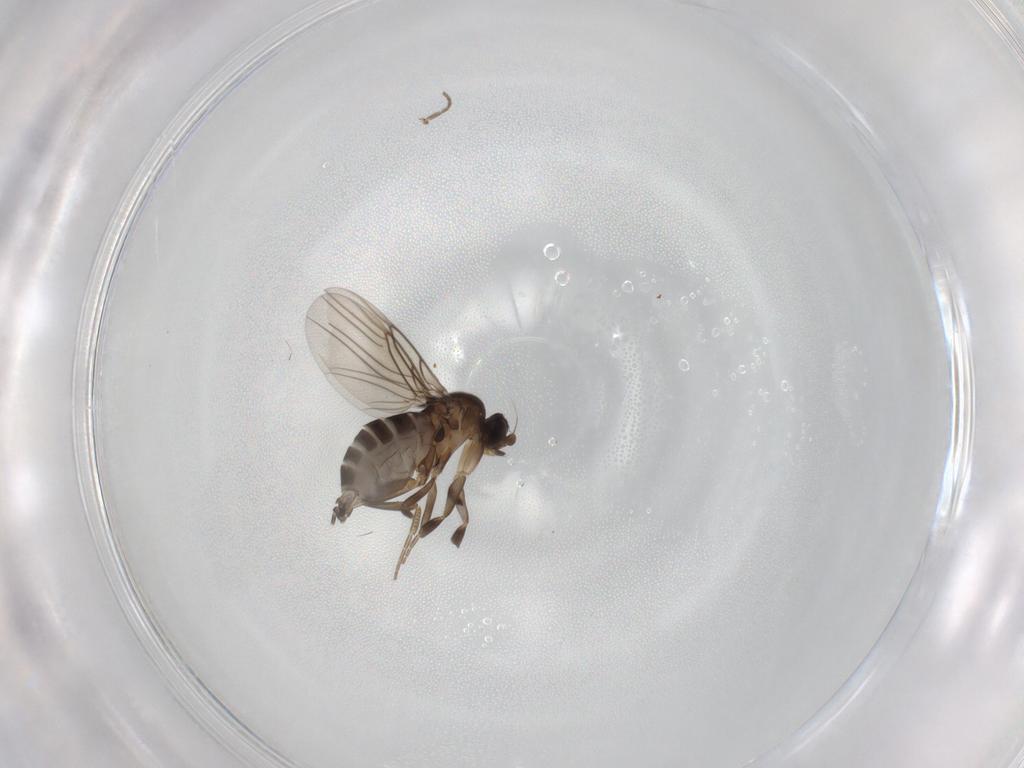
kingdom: Animalia
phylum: Arthropoda
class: Insecta
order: Diptera
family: Phoridae
